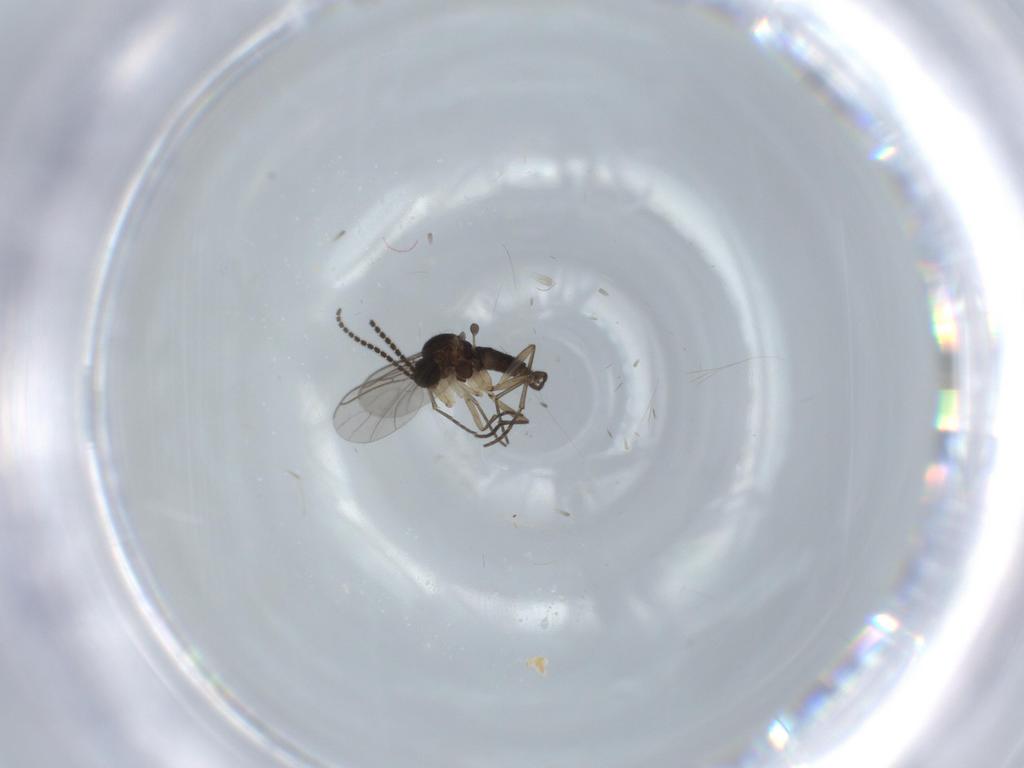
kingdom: Animalia
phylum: Arthropoda
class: Insecta
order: Diptera
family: Sciaridae
